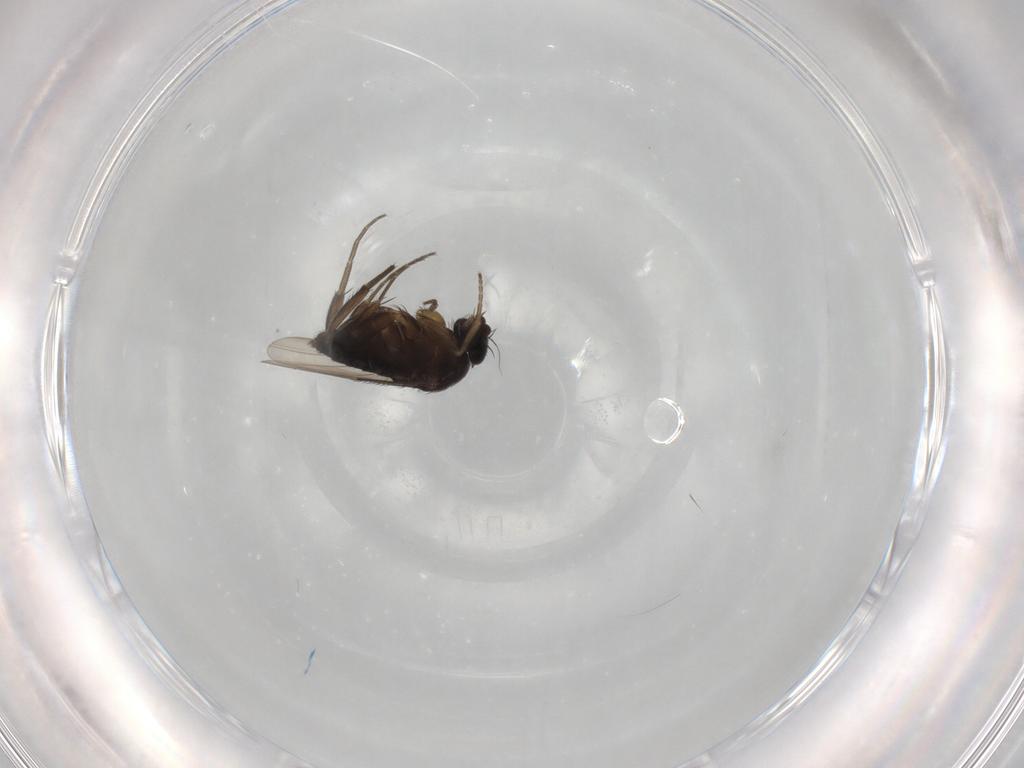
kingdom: Animalia
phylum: Arthropoda
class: Insecta
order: Diptera
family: Phoridae
